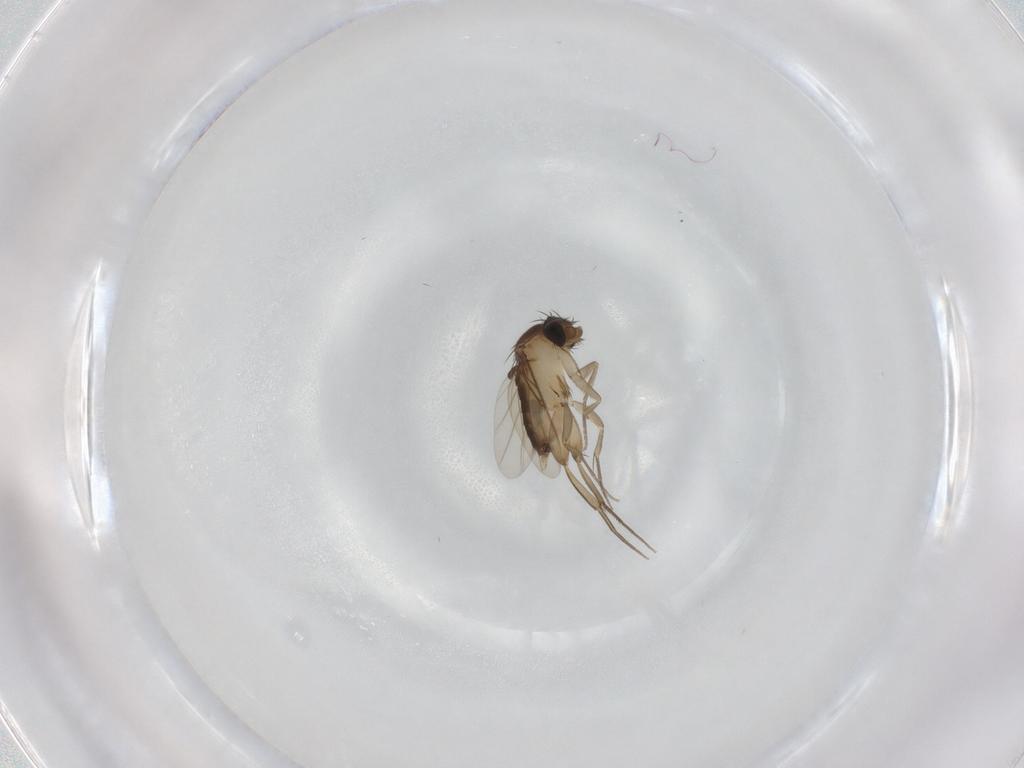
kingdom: Animalia
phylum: Arthropoda
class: Insecta
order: Diptera
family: Phoridae
